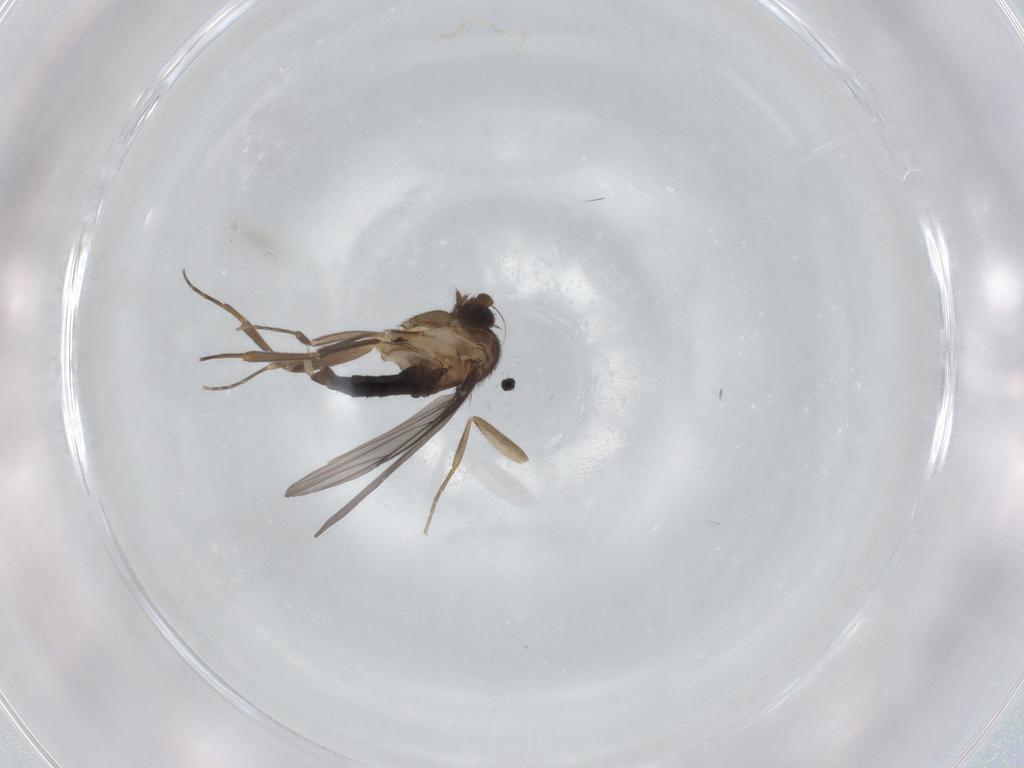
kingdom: Animalia
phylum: Arthropoda
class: Insecta
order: Diptera
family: Phoridae
